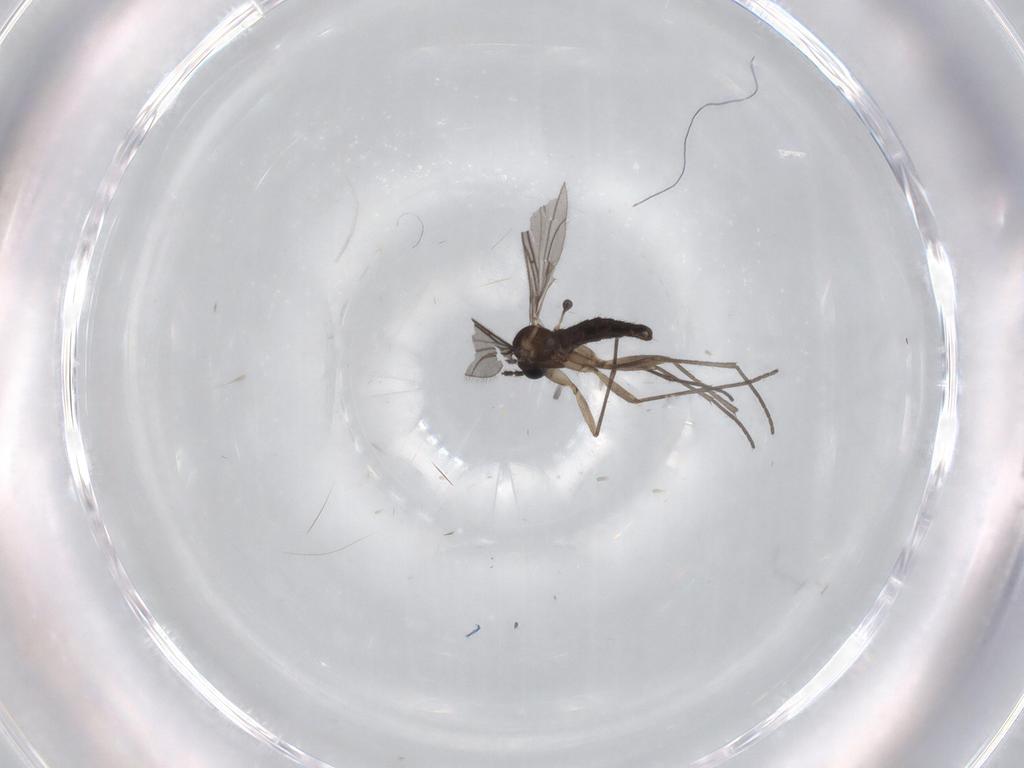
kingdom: Animalia
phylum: Arthropoda
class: Insecta
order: Diptera
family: Sciaridae
